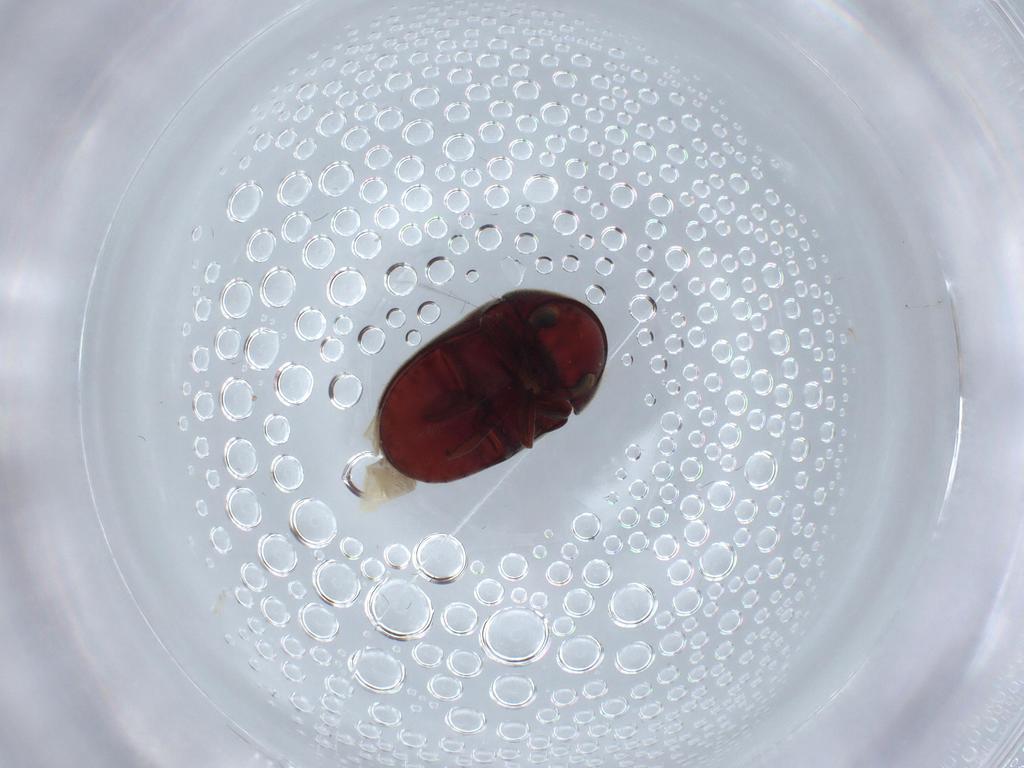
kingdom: Animalia
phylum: Arthropoda
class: Insecta
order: Coleoptera
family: Ptinidae
